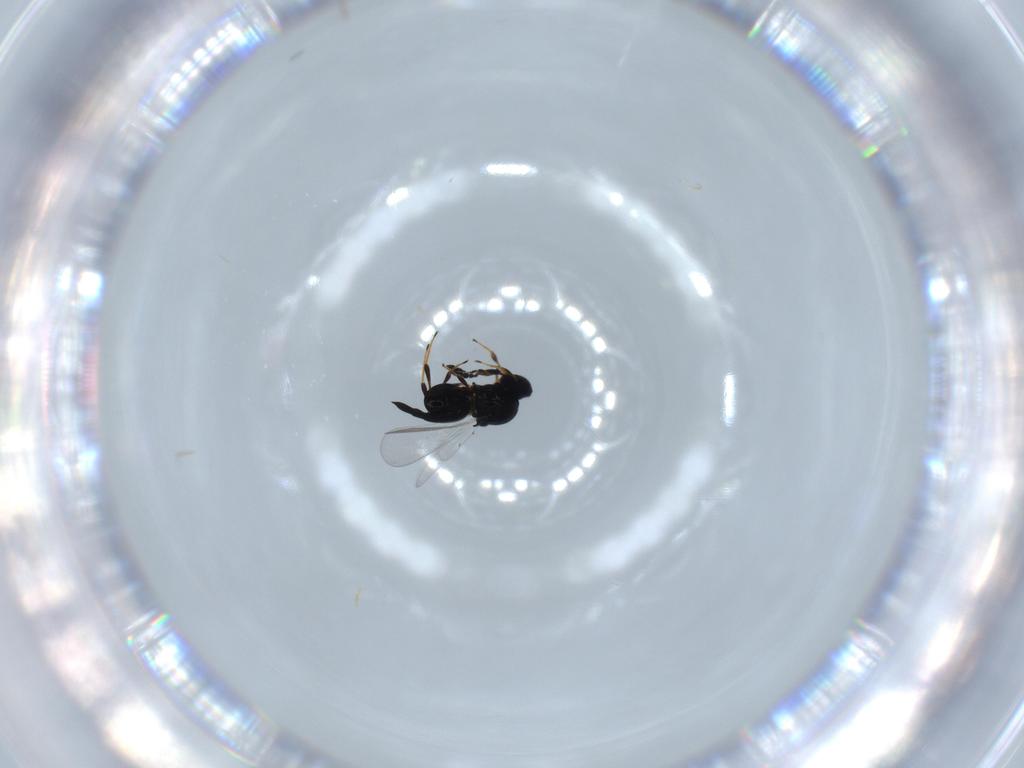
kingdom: Animalia
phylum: Arthropoda
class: Insecta
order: Hymenoptera
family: Platygastridae
